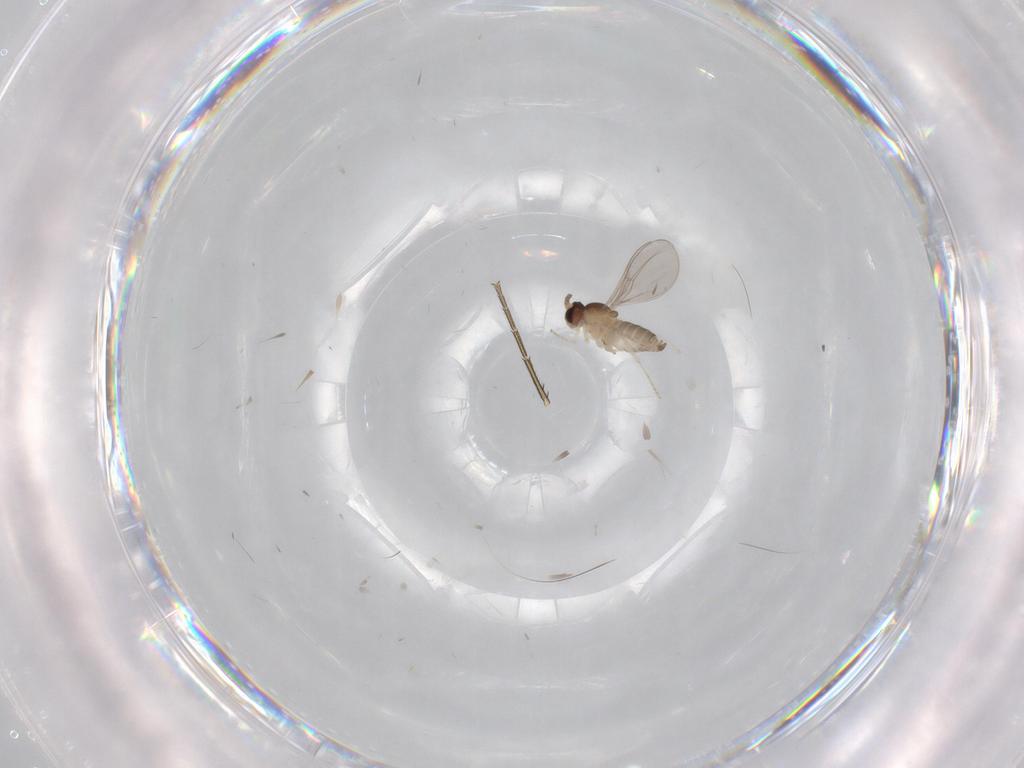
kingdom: Animalia
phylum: Arthropoda
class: Insecta
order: Diptera
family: Cecidomyiidae
